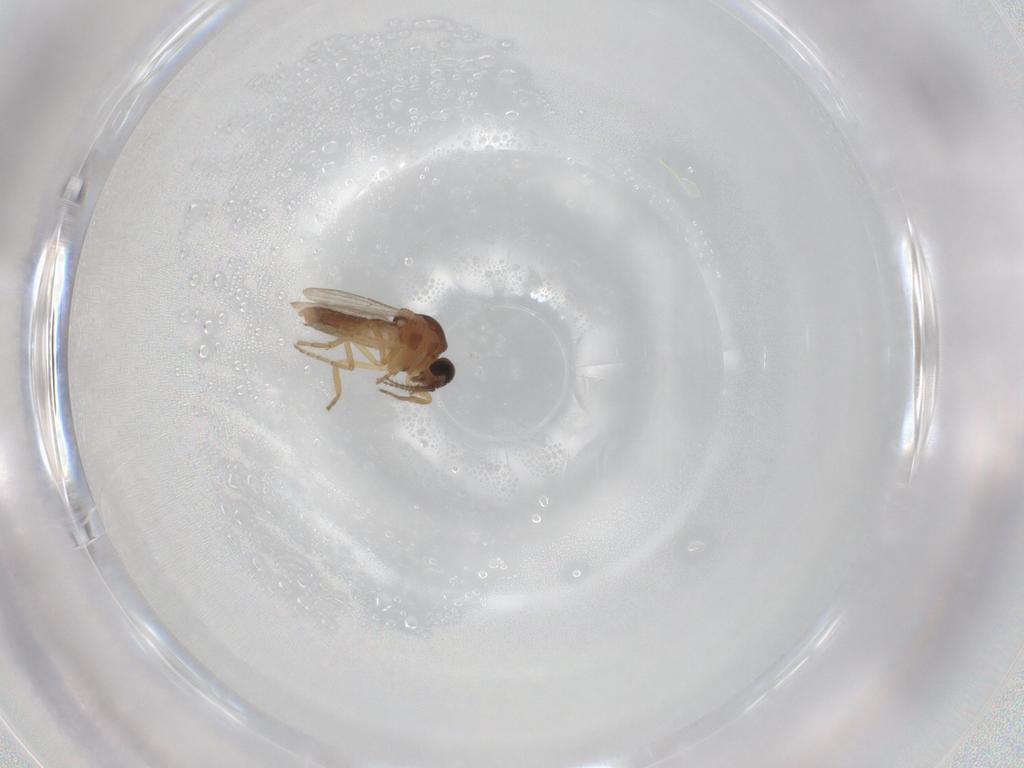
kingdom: Animalia
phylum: Arthropoda
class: Insecta
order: Diptera
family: Ceratopogonidae
